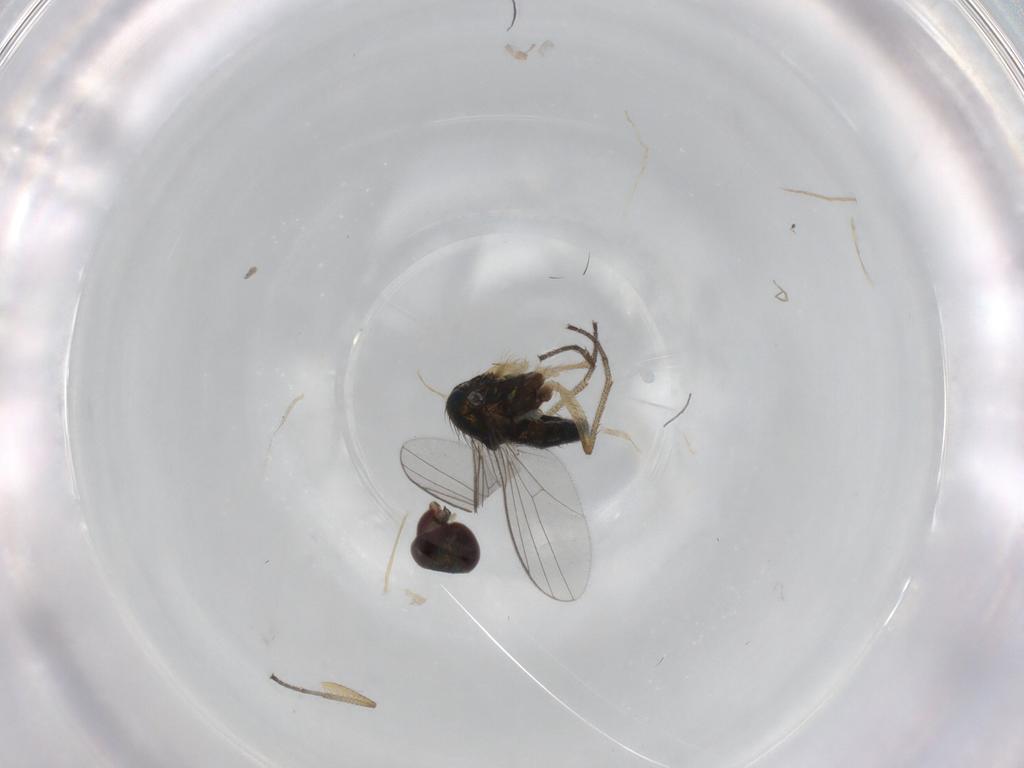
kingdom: Animalia
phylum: Arthropoda
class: Insecta
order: Diptera
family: Dolichopodidae
